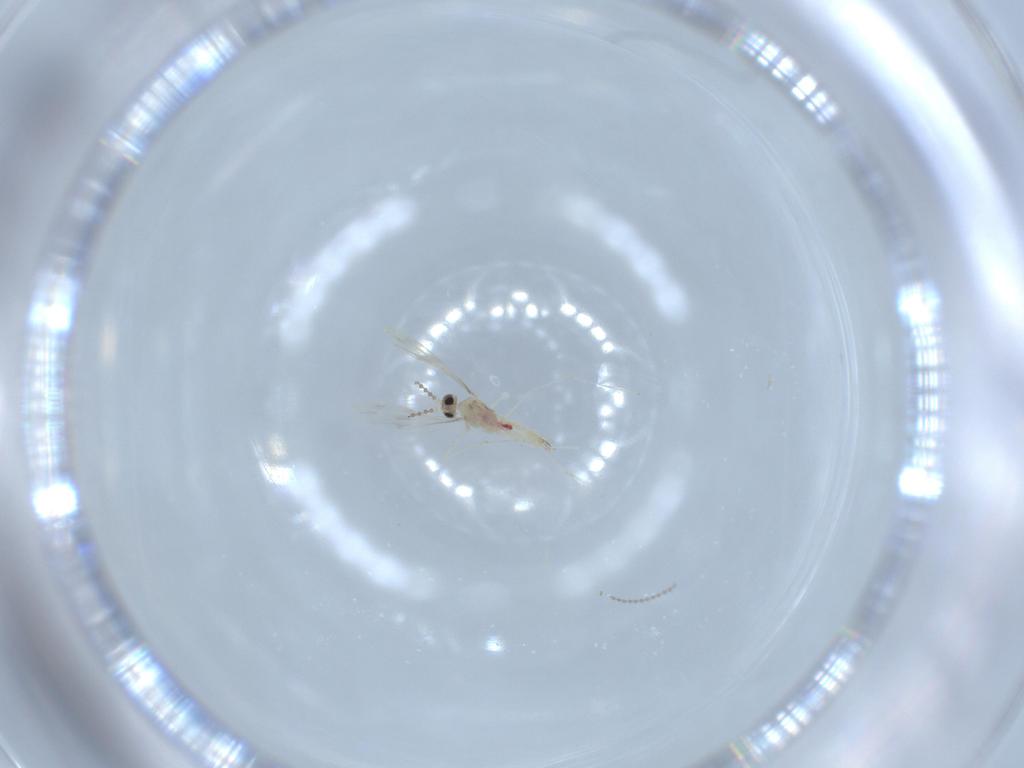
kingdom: Animalia
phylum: Arthropoda
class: Insecta
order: Diptera
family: Cecidomyiidae
